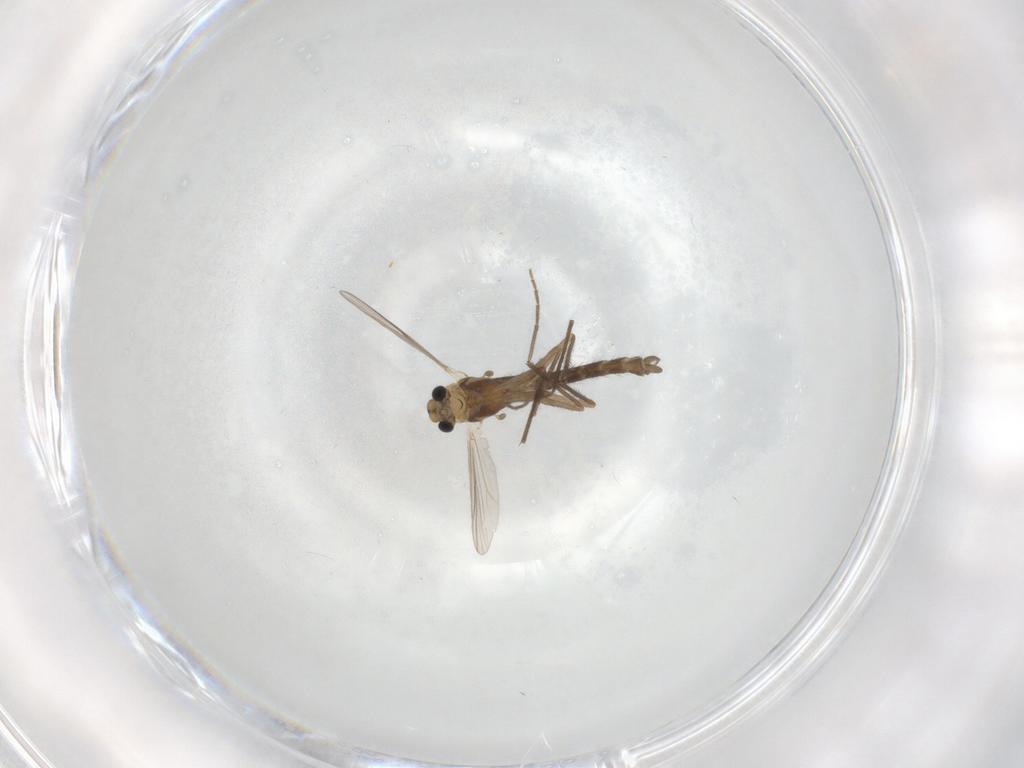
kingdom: Animalia
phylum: Arthropoda
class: Insecta
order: Diptera
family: Chironomidae
